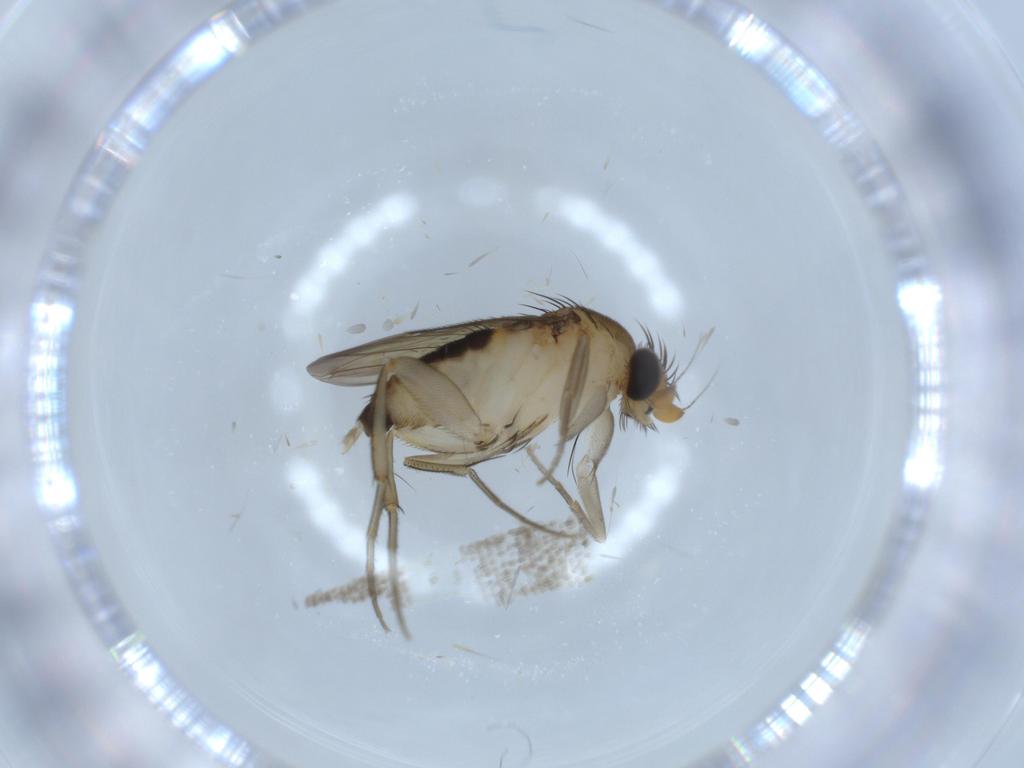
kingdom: Animalia
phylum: Arthropoda
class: Insecta
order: Diptera
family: Phoridae
